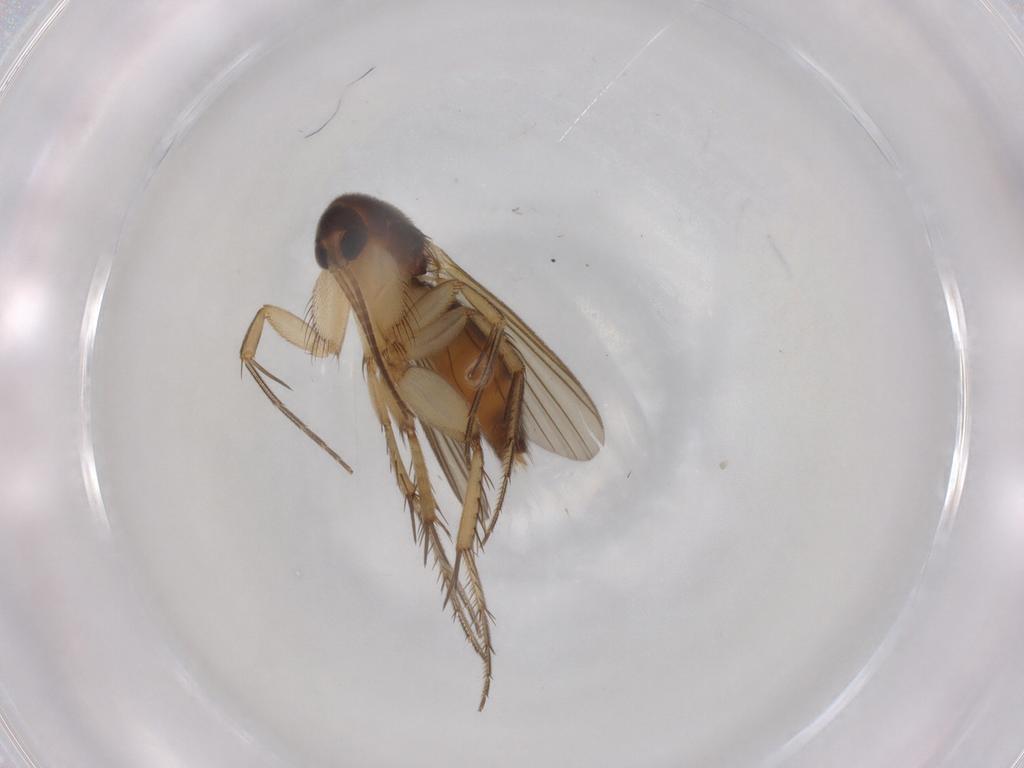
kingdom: Animalia
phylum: Arthropoda
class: Insecta
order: Diptera
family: Mycetophilidae
